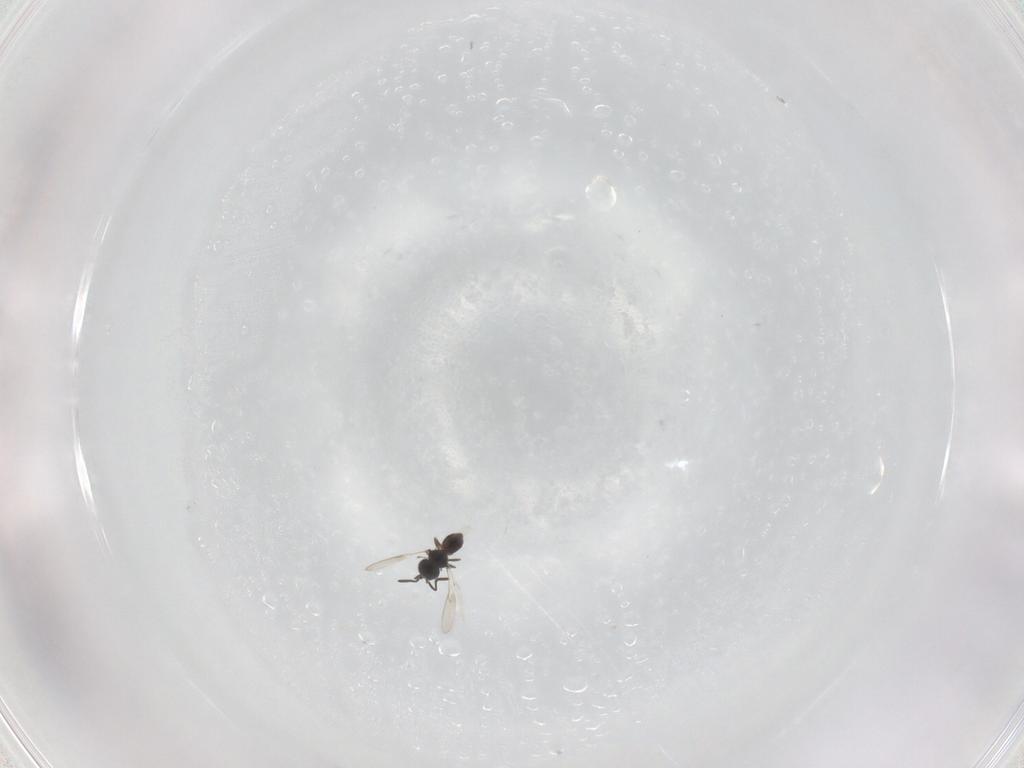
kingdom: Animalia
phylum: Arthropoda
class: Insecta
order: Hymenoptera
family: Scelionidae
